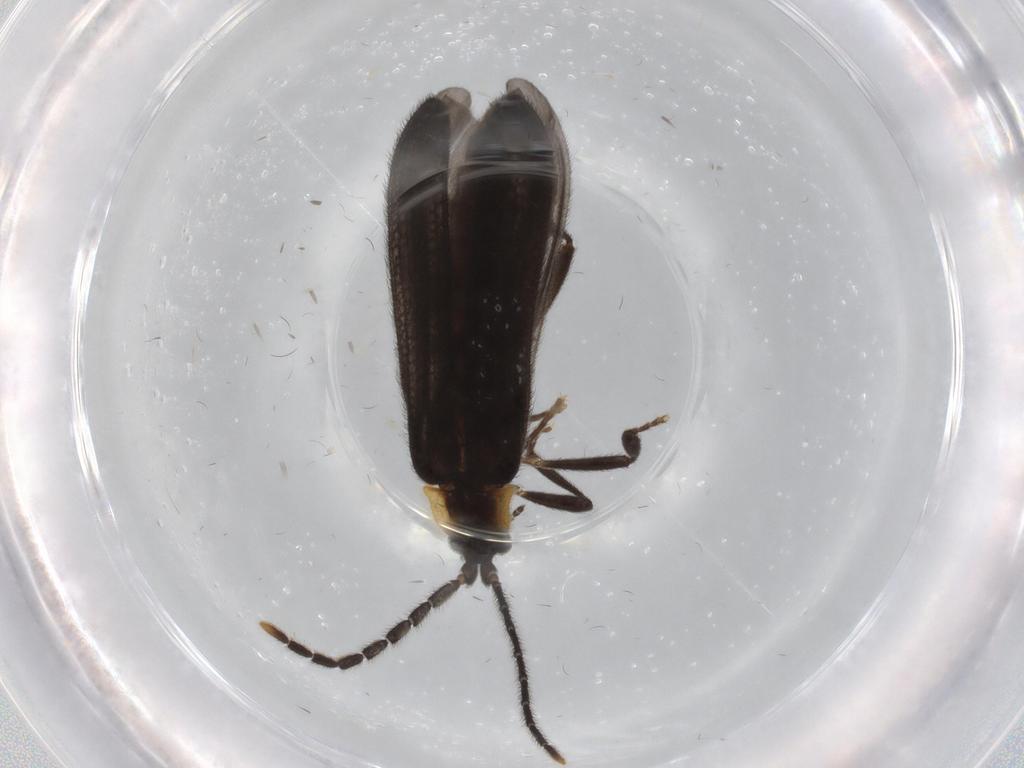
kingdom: Animalia
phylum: Arthropoda
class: Insecta
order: Coleoptera
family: Lycidae
